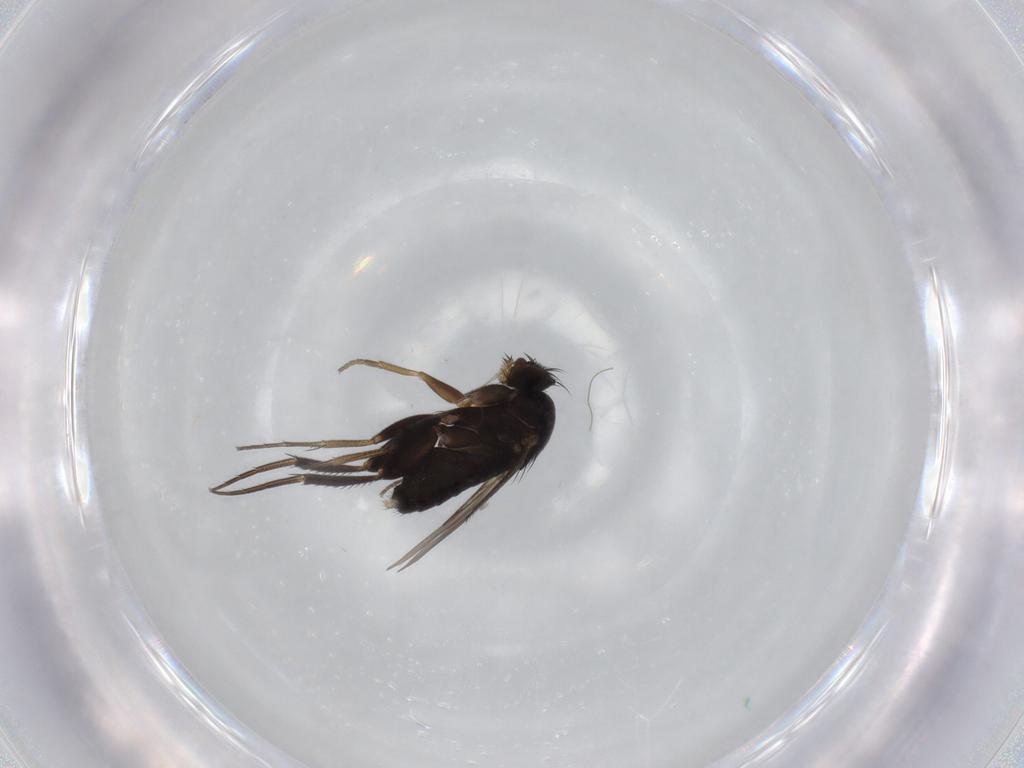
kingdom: Animalia
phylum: Arthropoda
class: Insecta
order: Diptera
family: Phoridae
